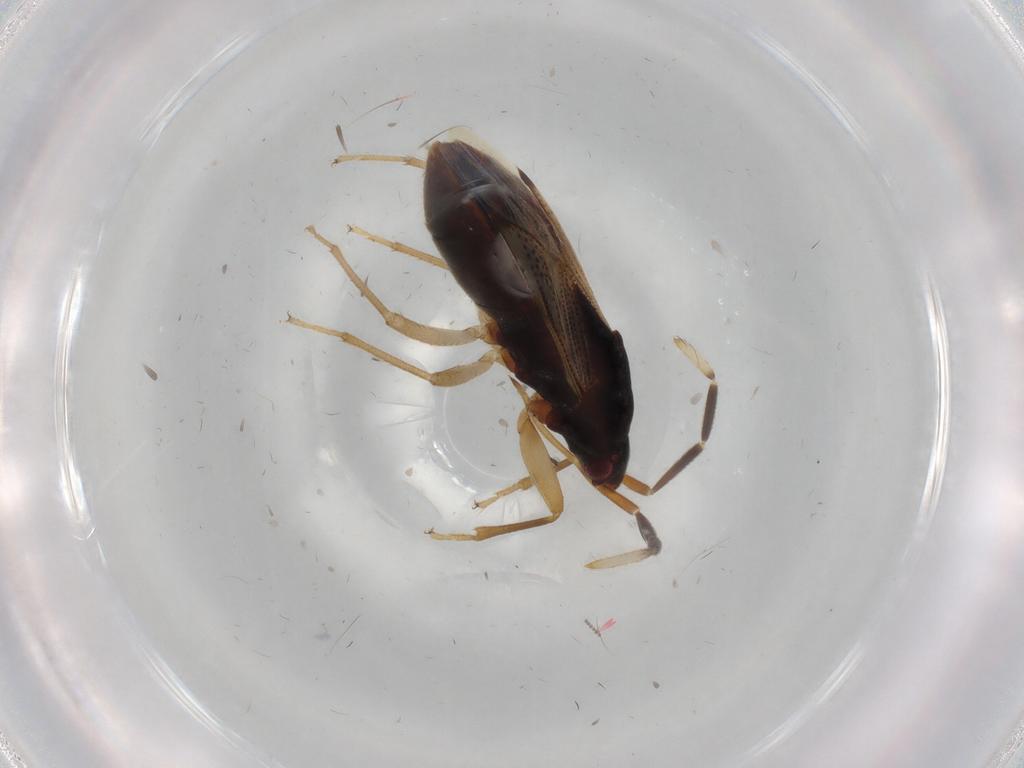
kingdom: Animalia
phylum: Arthropoda
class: Insecta
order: Hemiptera
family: Rhyparochromidae
